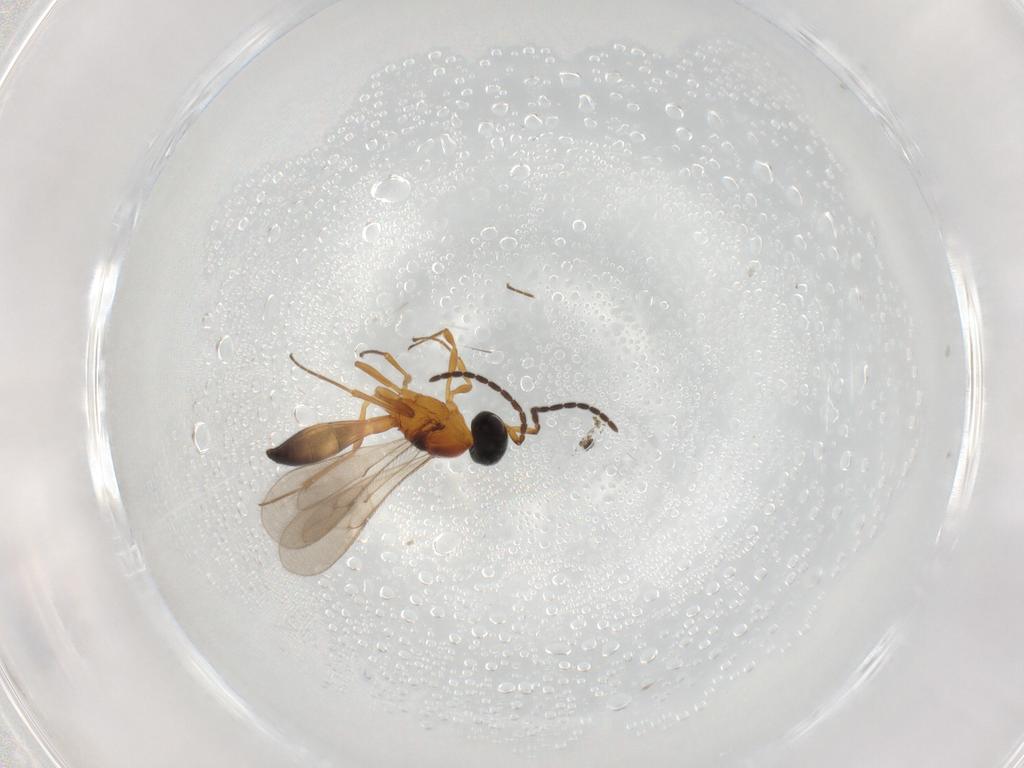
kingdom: Animalia
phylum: Arthropoda
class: Insecta
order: Hymenoptera
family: Scelionidae
